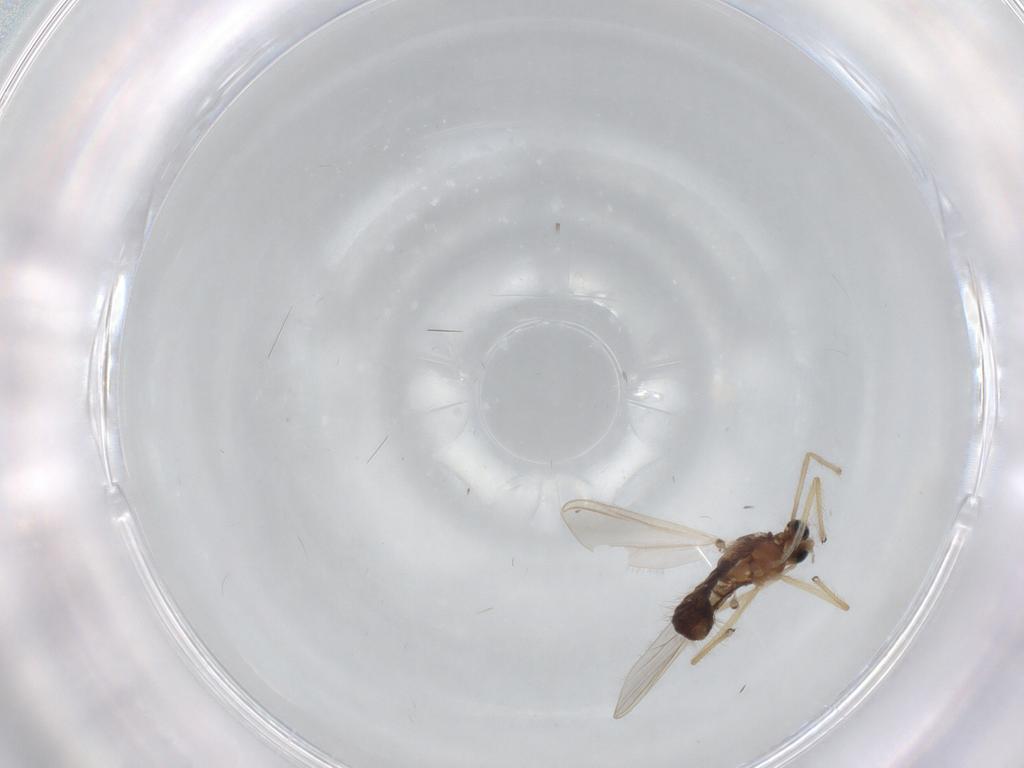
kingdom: Animalia
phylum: Arthropoda
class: Insecta
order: Diptera
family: Chironomidae
